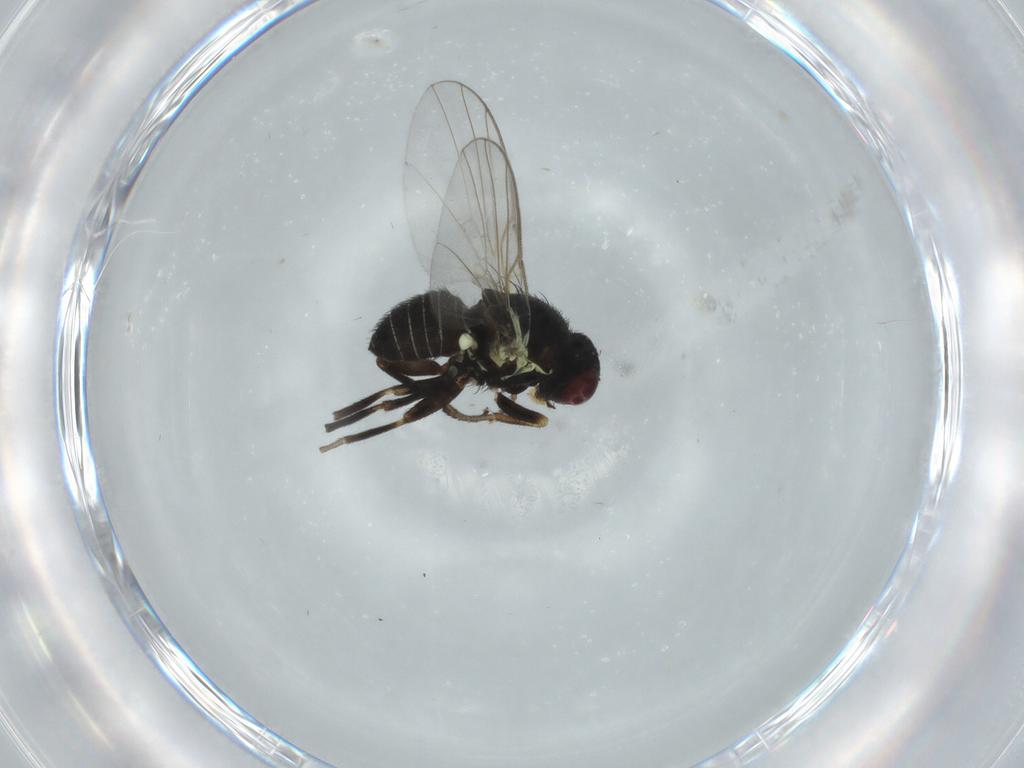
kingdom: Animalia
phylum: Arthropoda
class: Insecta
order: Diptera
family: Agromyzidae
